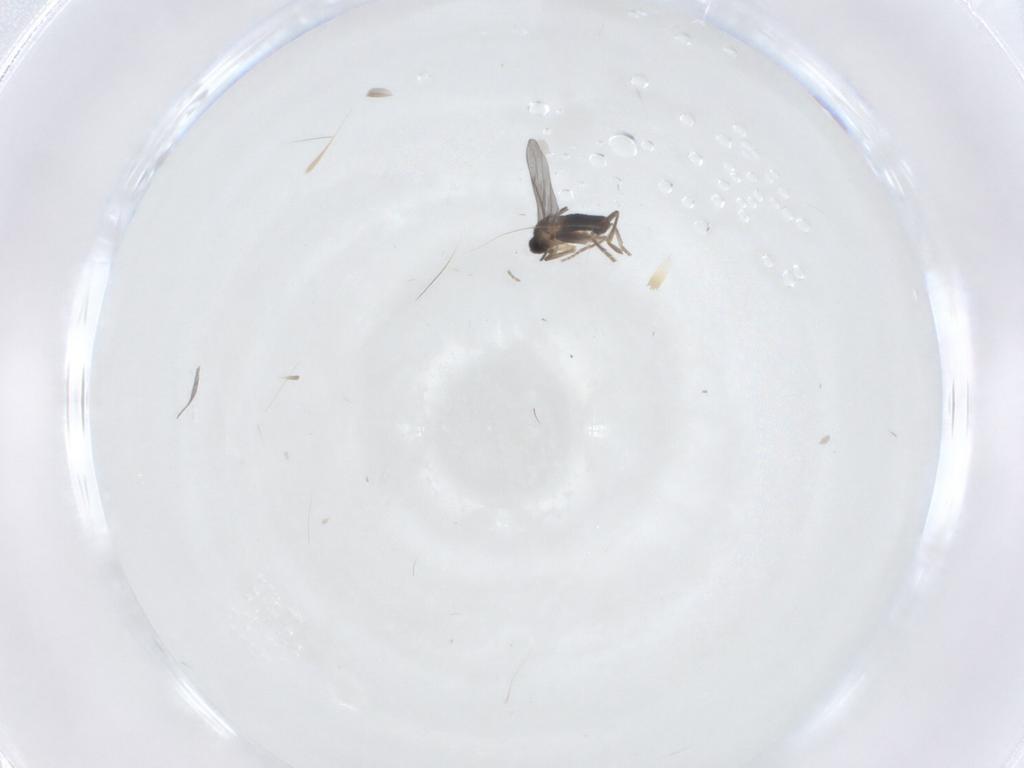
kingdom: Animalia
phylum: Arthropoda
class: Insecta
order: Diptera
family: Phoridae
